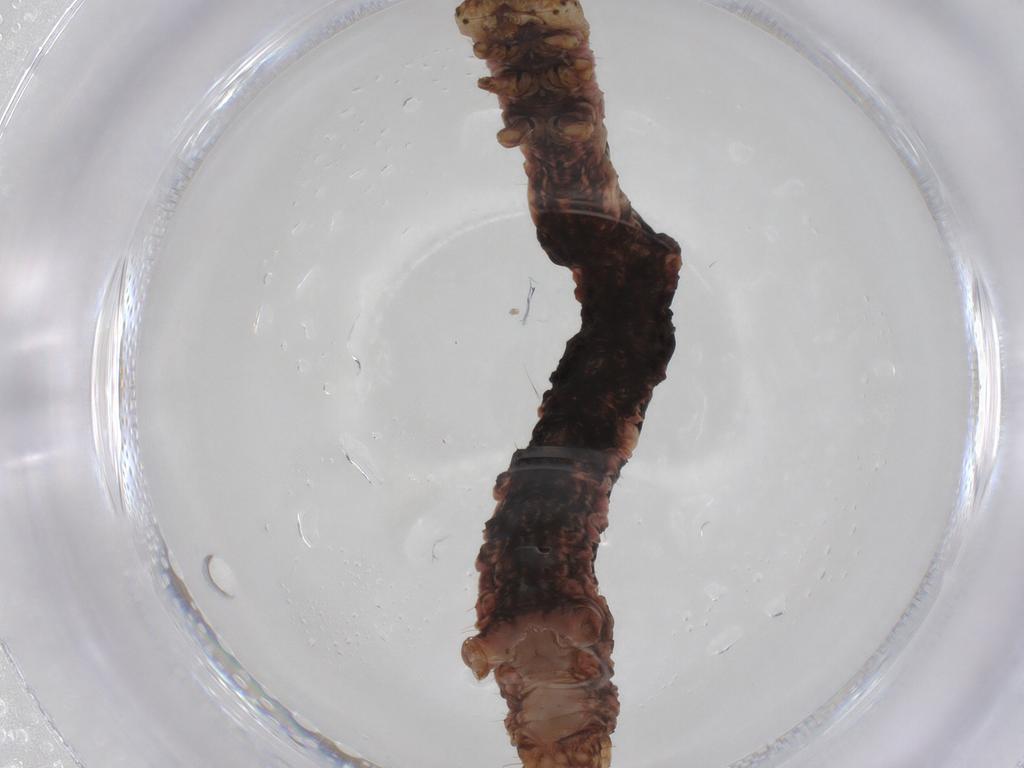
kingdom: Animalia
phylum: Arthropoda
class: Insecta
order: Lepidoptera
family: Noctuidae
